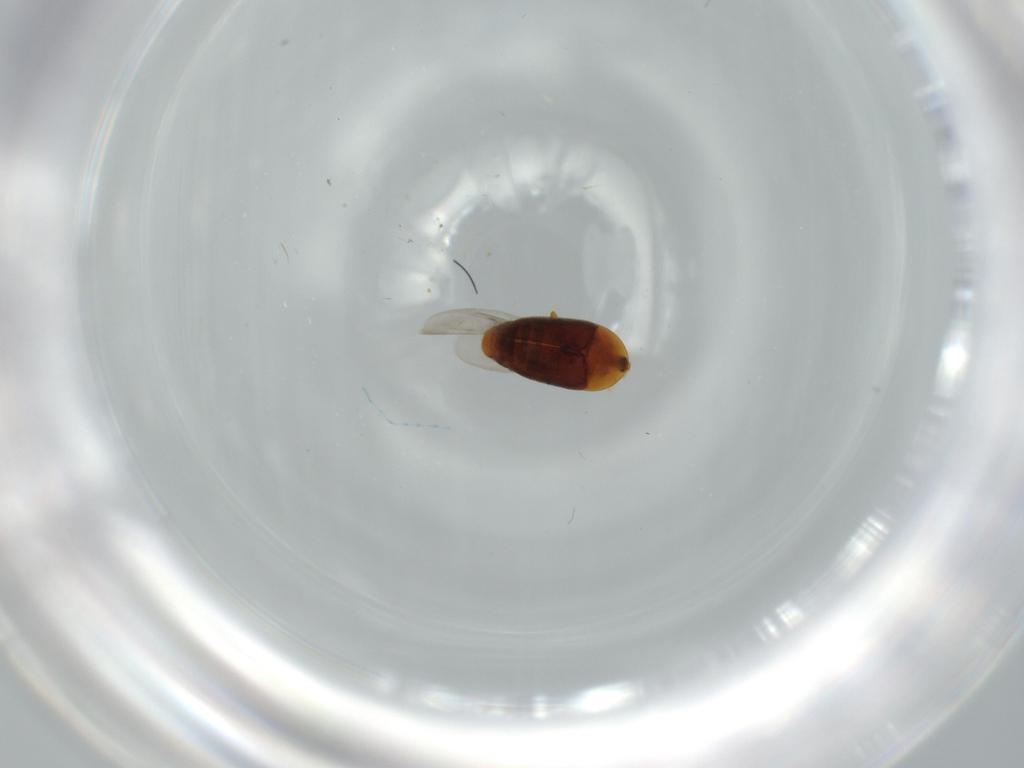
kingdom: Animalia
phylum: Arthropoda
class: Insecta
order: Coleoptera
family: Corylophidae
